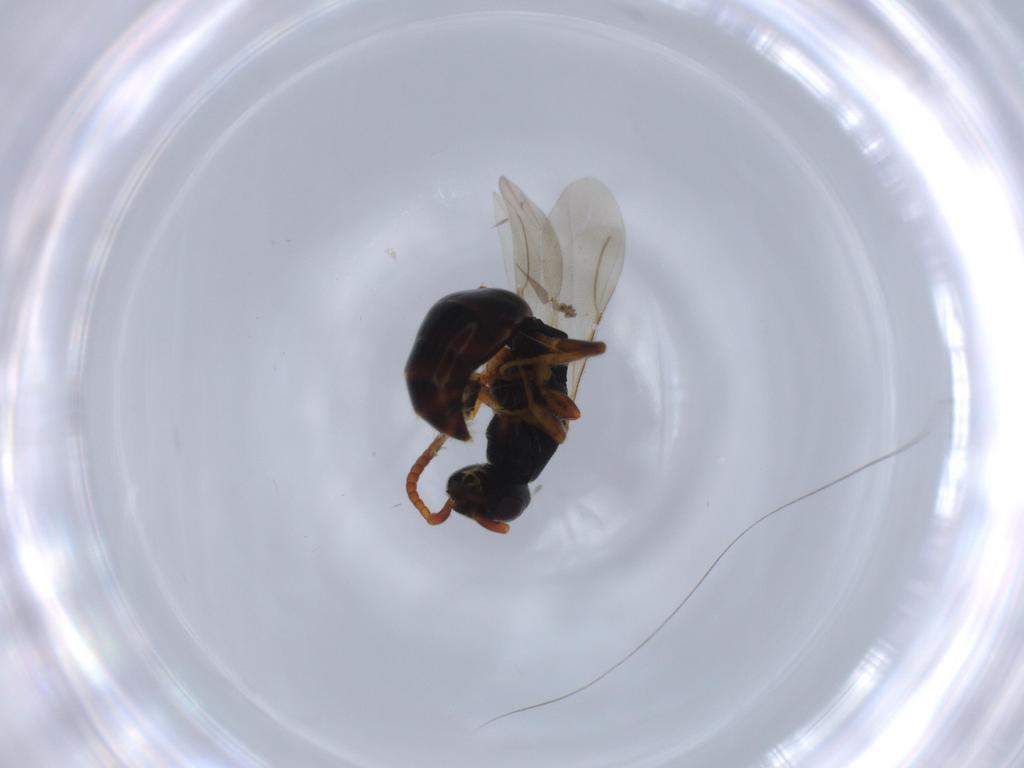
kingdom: Animalia
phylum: Arthropoda
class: Insecta
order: Hymenoptera
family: Bethylidae
